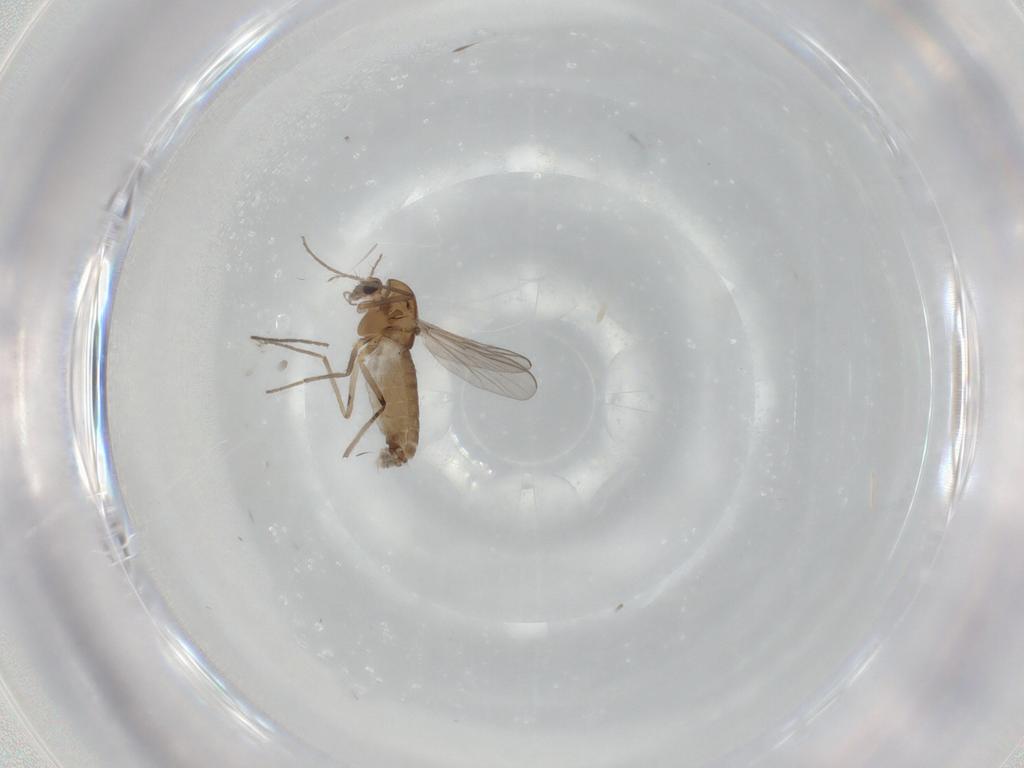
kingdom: Animalia
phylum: Arthropoda
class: Insecta
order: Diptera
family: Chironomidae
